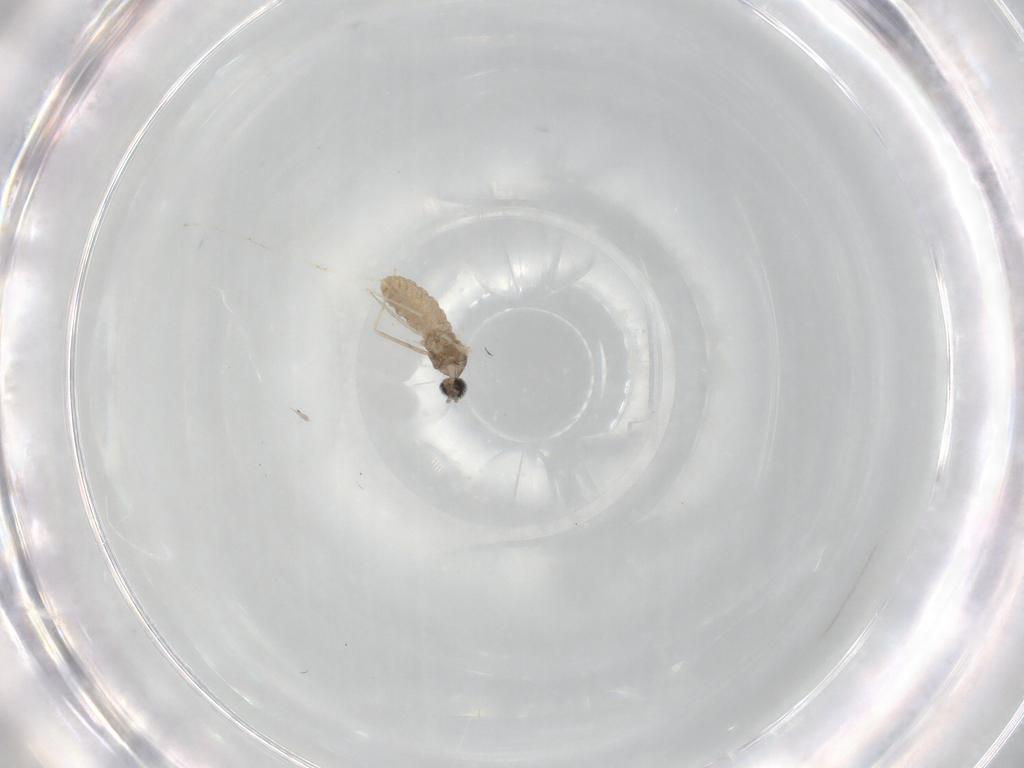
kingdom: Animalia
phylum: Arthropoda
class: Insecta
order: Diptera
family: Cecidomyiidae
